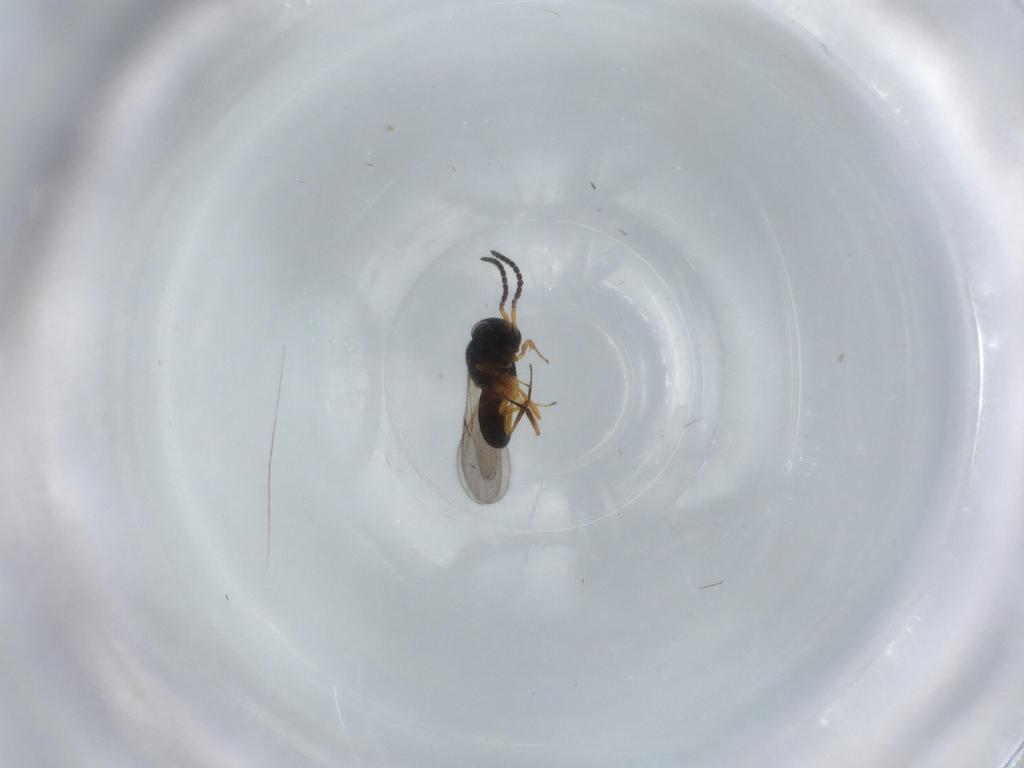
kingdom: Animalia
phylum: Arthropoda
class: Insecta
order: Hymenoptera
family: Scelionidae
